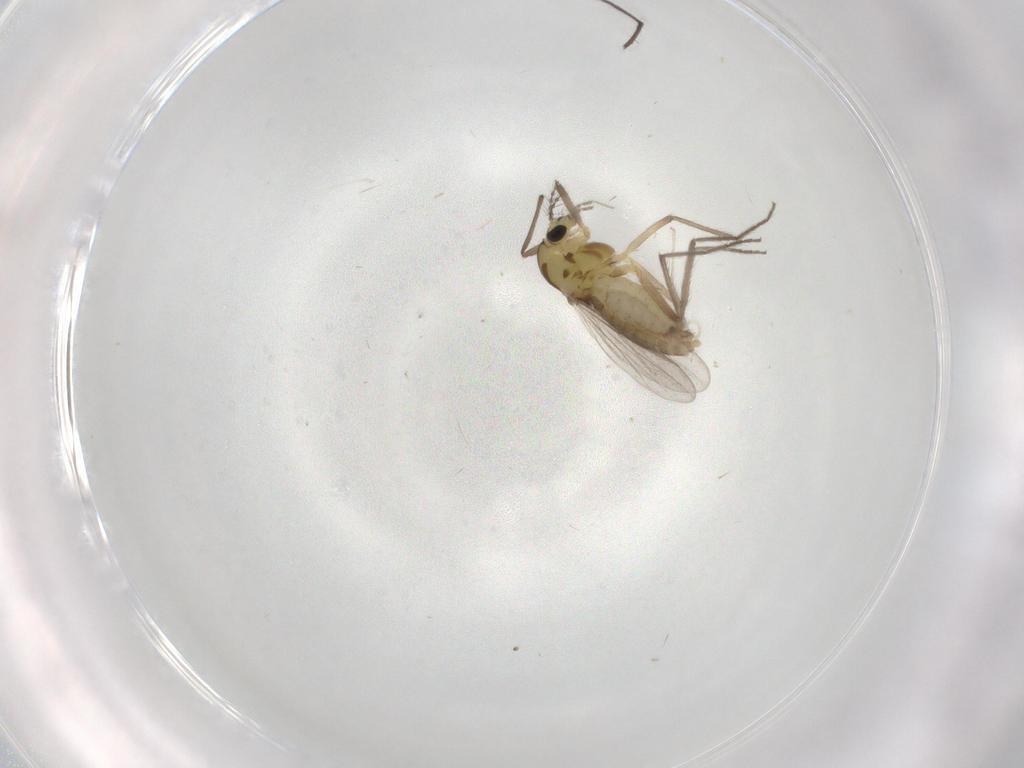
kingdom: Animalia
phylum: Arthropoda
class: Insecta
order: Diptera
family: Chironomidae
